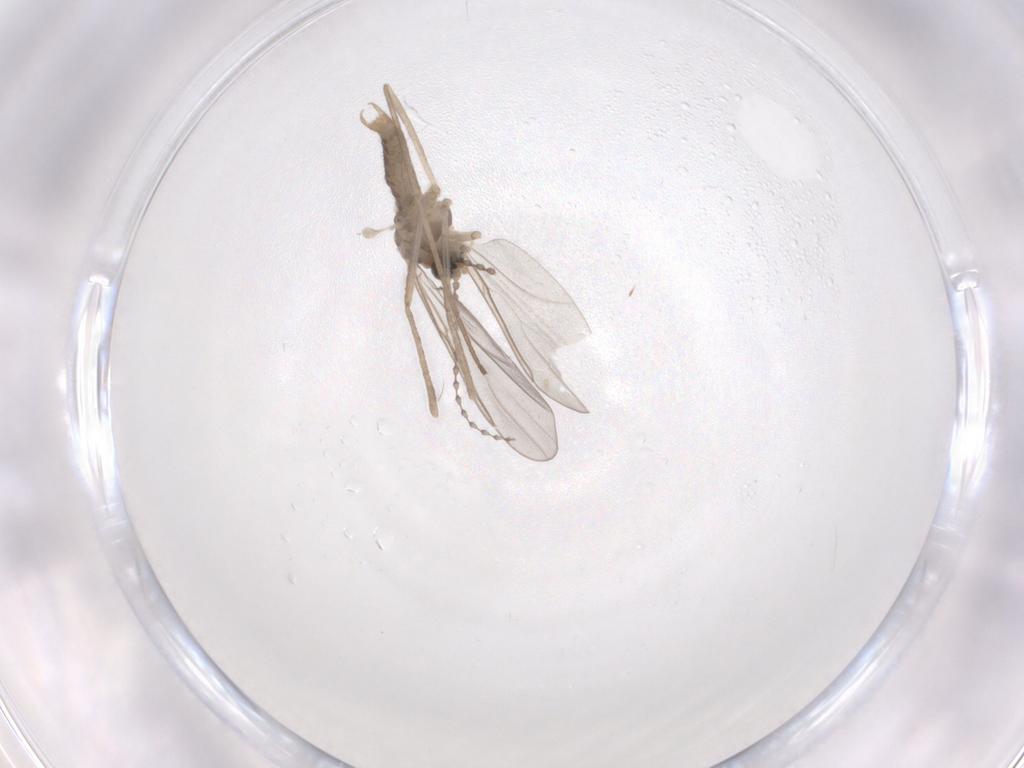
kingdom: Animalia
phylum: Arthropoda
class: Insecta
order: Diptera
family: Cecidomyiidae
